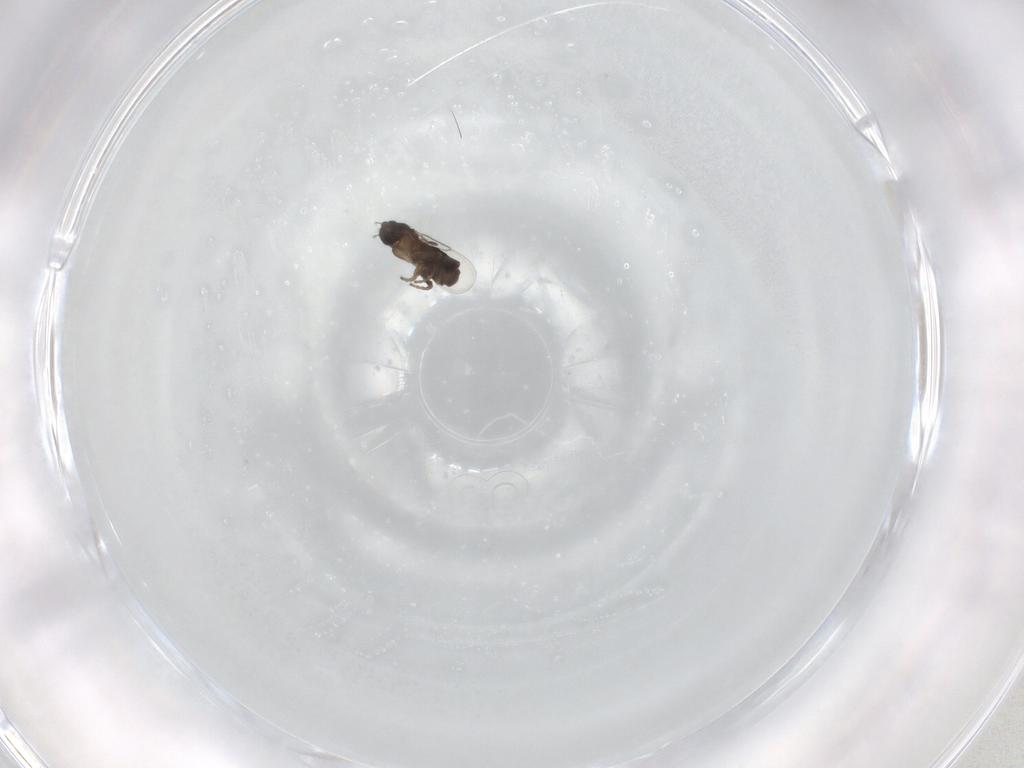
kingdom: Animalia
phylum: Arthropoda
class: Insecta
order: Diptera
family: Phoridae
